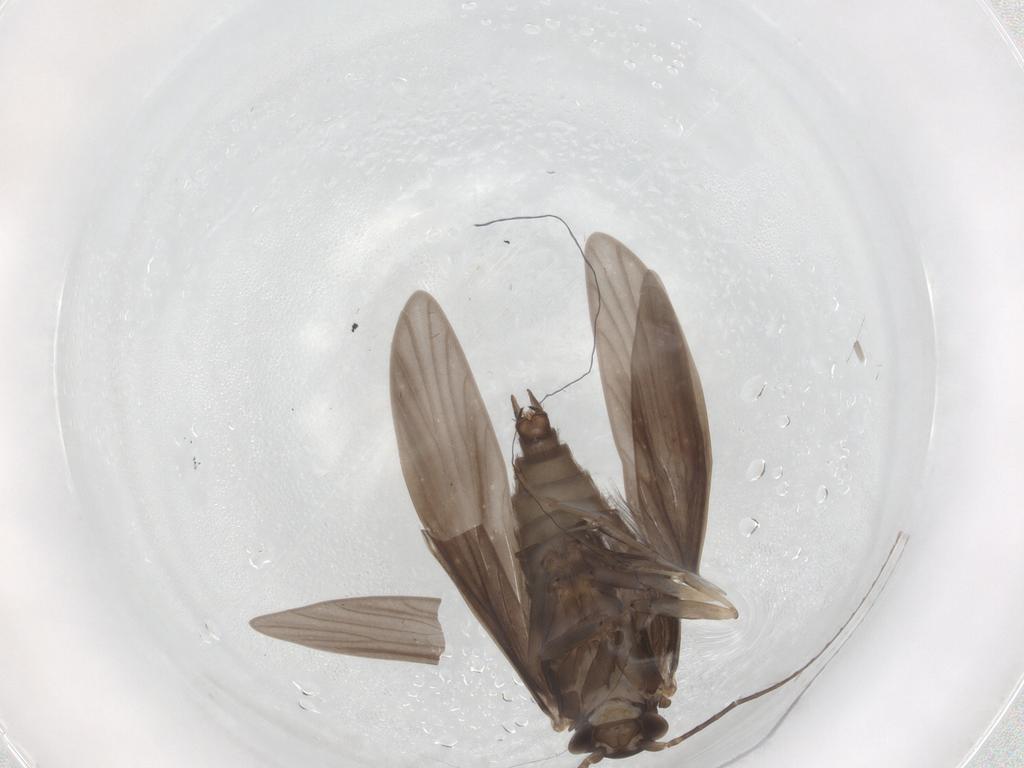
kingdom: Animalia
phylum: Arthropoda
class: Insecta
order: Trichoptera
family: Xiphocentronidae
